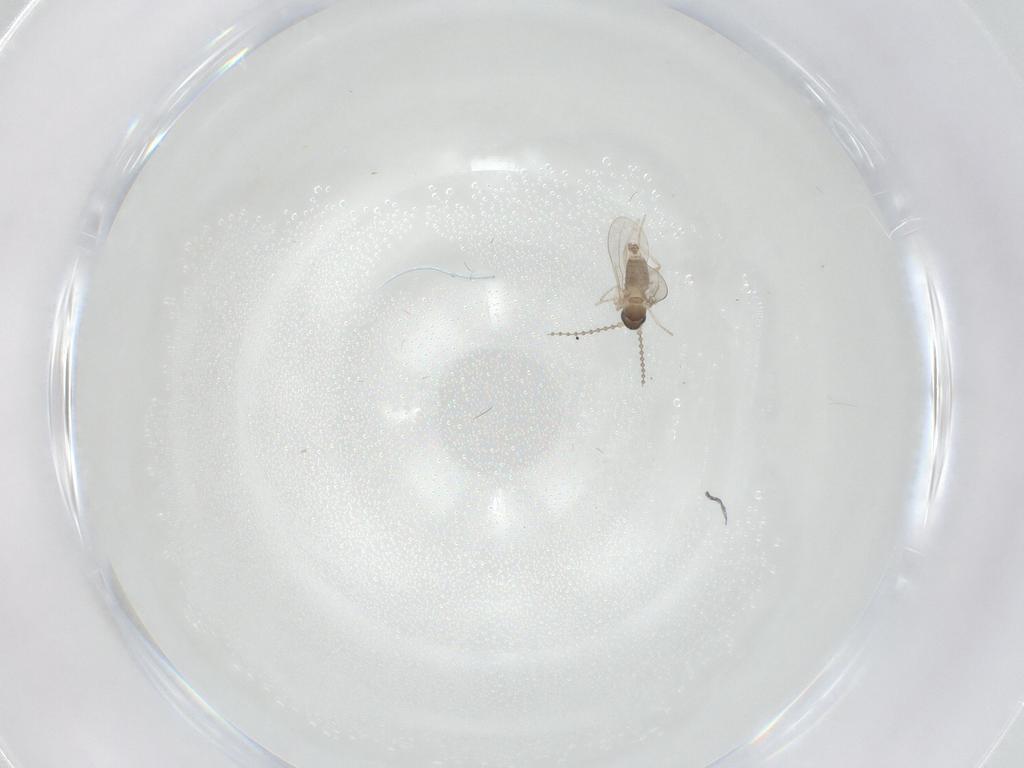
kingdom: Animalia
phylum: Arthropoda
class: Insecta
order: Diptera
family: Cecidomyiidae
